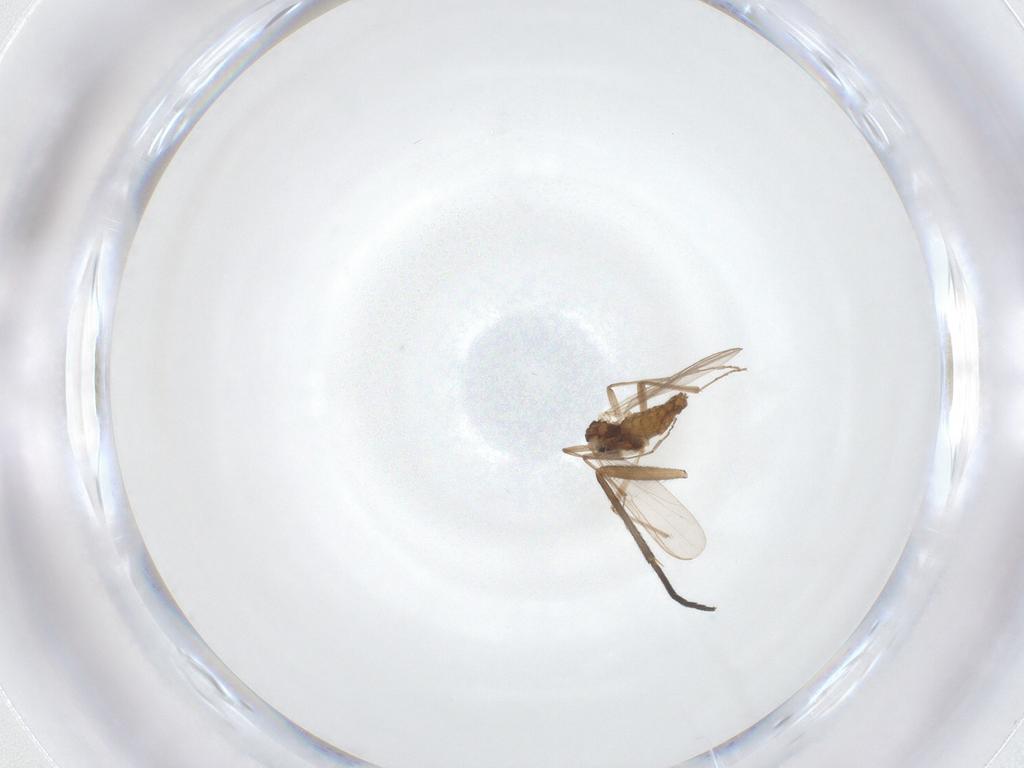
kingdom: Animalia
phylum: Arthropoda
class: Insecta
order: Diptera
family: Chironomidae
